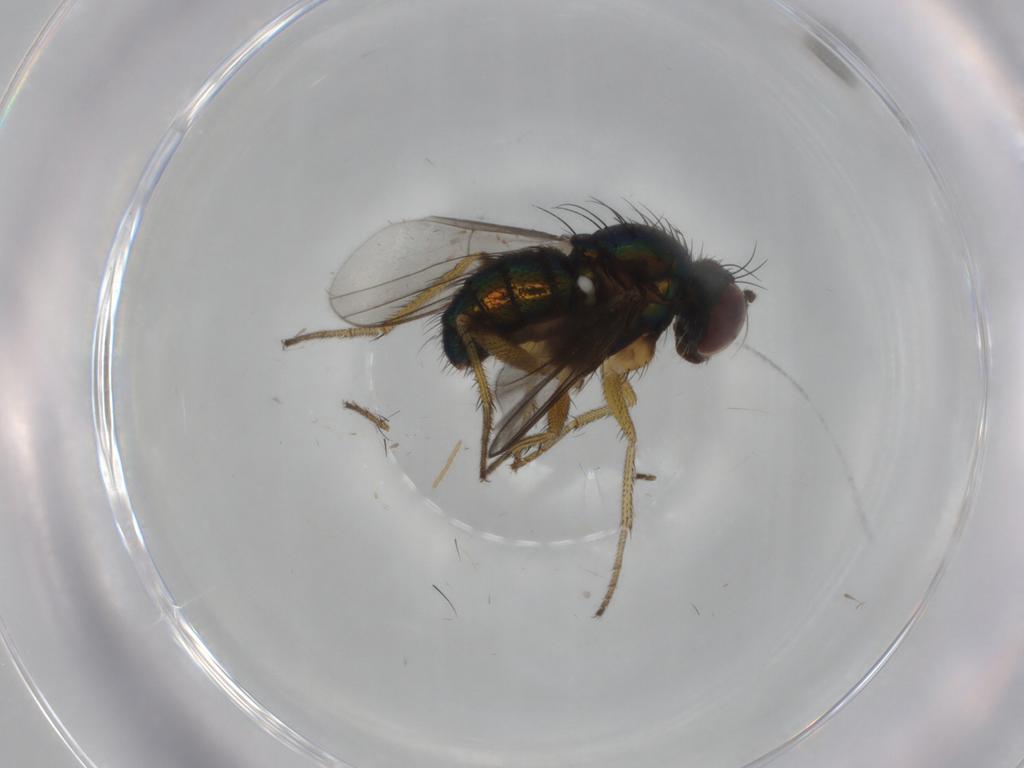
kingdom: Animalia
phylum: Arthropoda
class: Insecta
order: Diptera
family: Dolichopodidae
